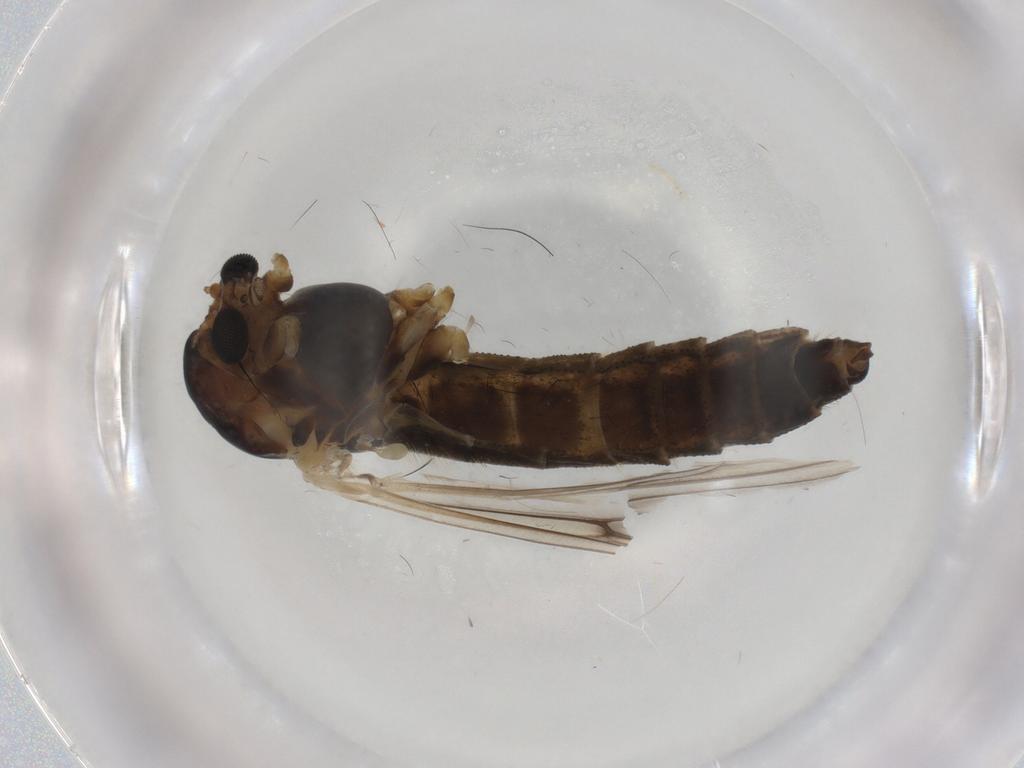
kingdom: Animalia
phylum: Arthropoda
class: Insecta
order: Diptera
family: Chironomidae
